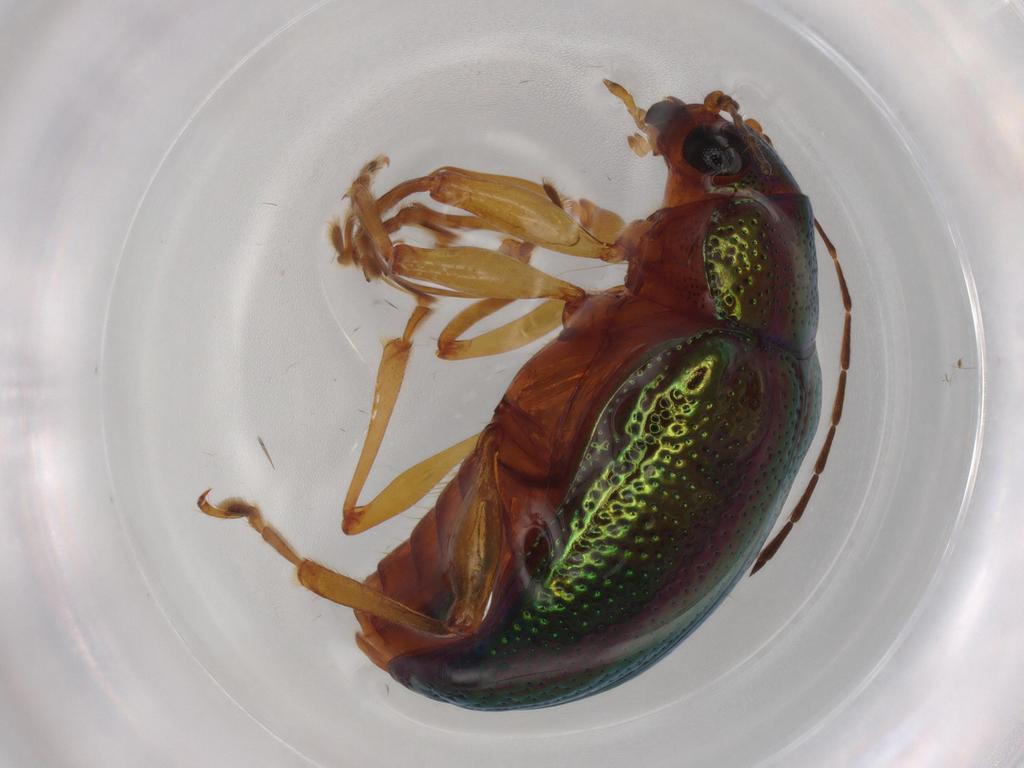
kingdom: Animalia
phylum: Arthropoda
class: Insecta
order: Coleoptera
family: Chrysomelidae
